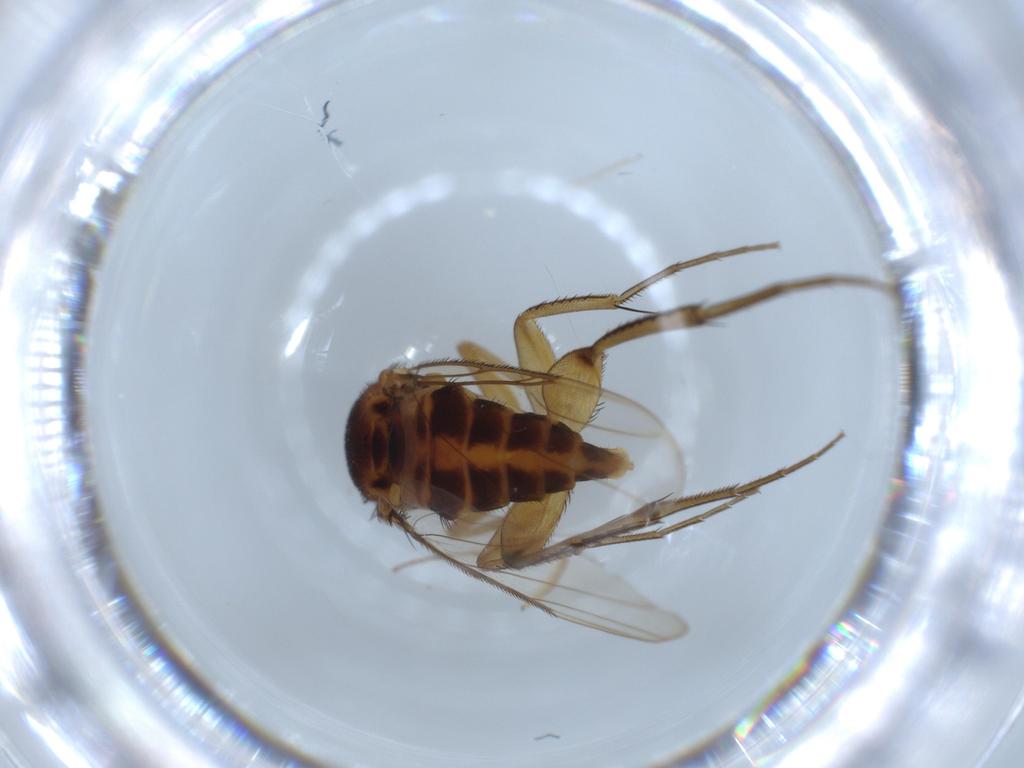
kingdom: Animalia
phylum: Arthropoda
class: Insecta
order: Diptera
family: Phoridae
